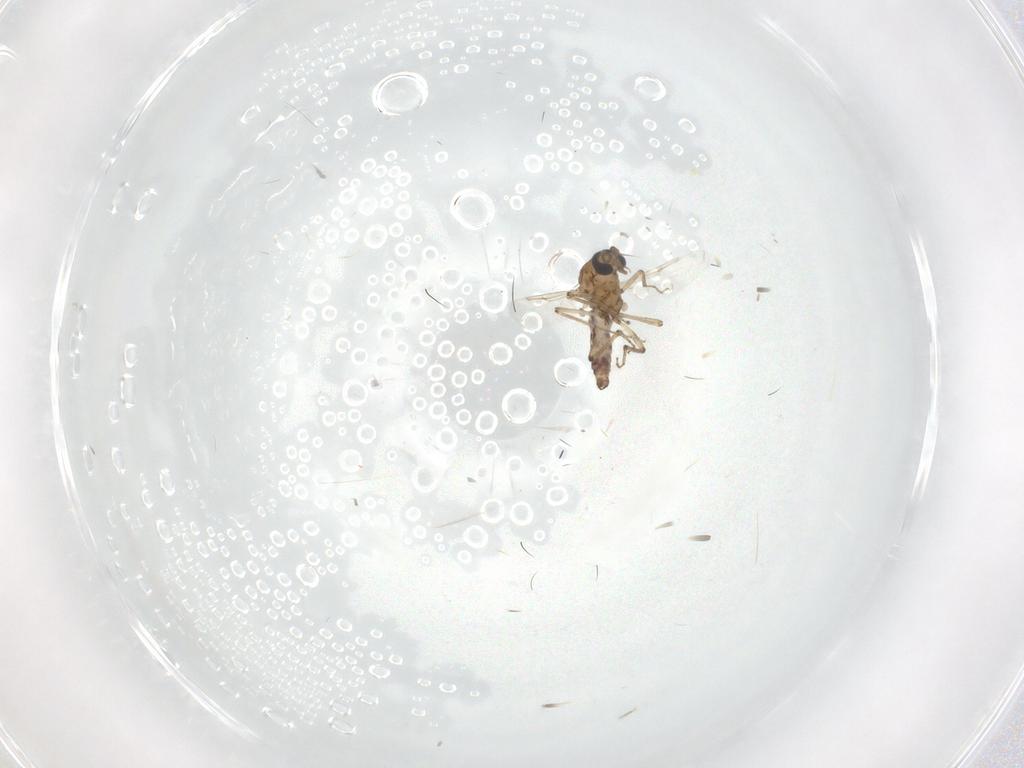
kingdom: Animalia
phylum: Arthropoda
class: Insecta
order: Diptera
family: Ceratopogonidae
